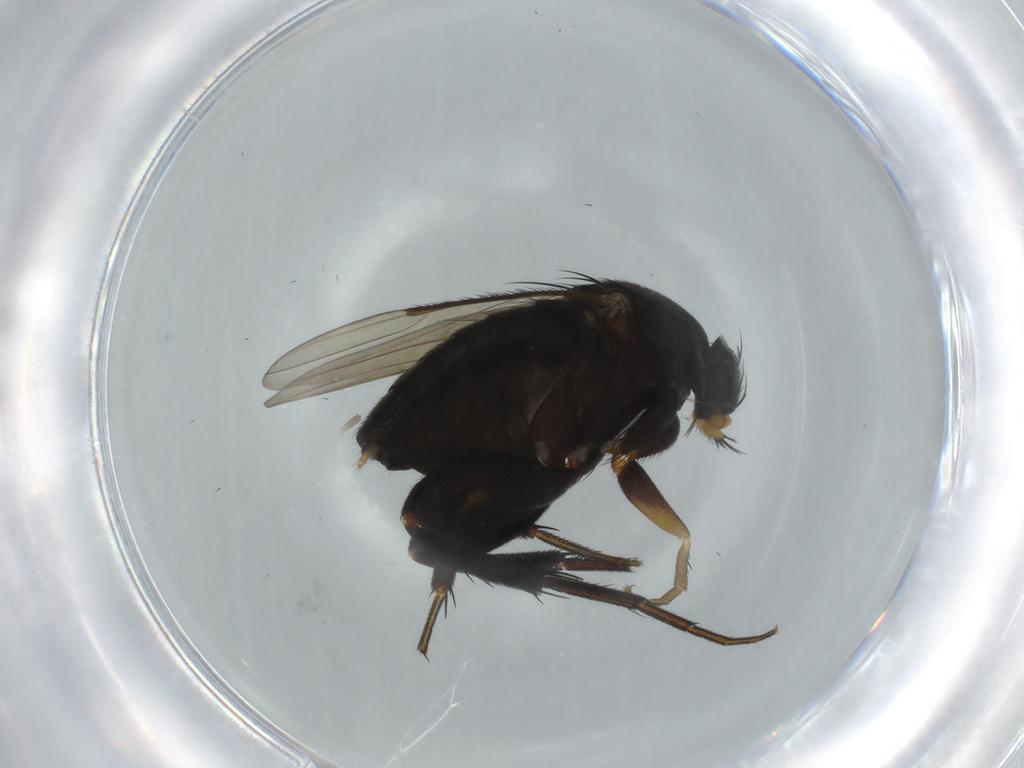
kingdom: Animalia
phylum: Arthropoda
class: Insecta
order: Diptera
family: Phoridae
